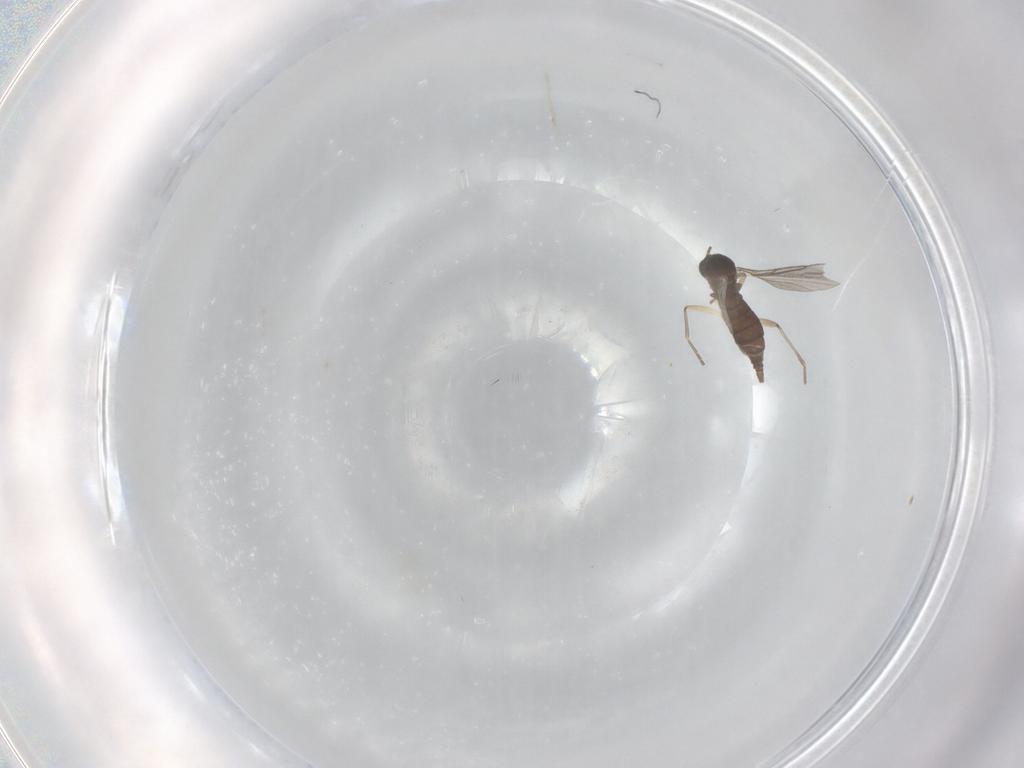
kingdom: Animalia
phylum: Arthropoda
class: Insecta
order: Diptera
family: Sciaridae
